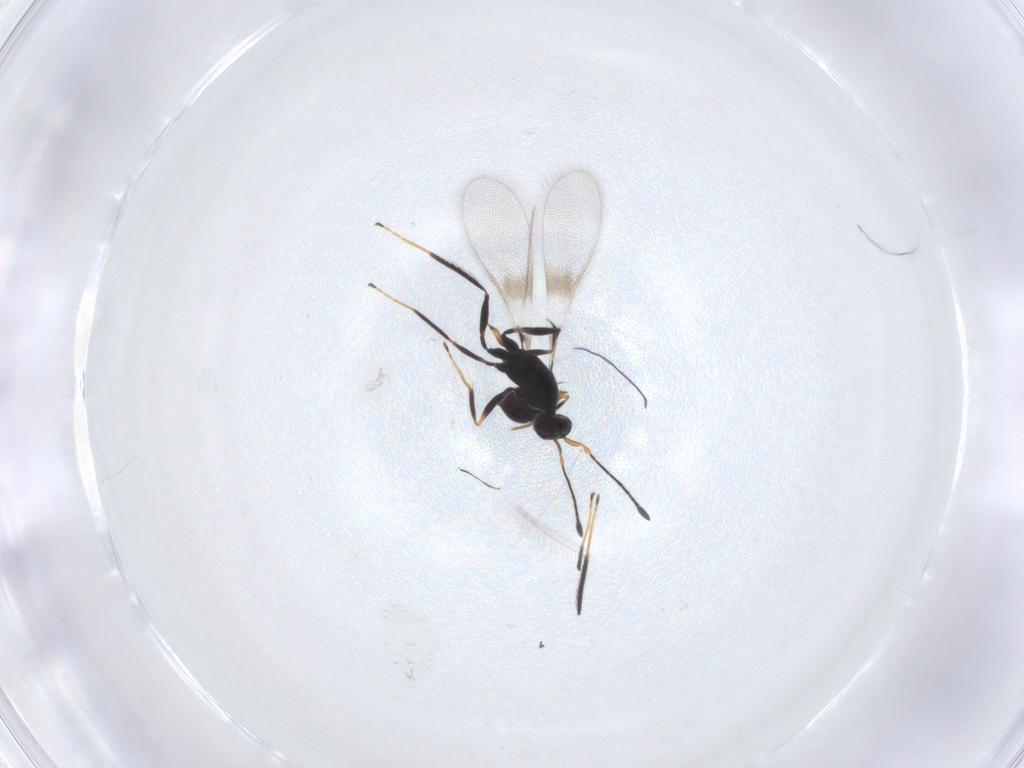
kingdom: Animalia
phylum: Arthropoda
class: Insecta
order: Hymenoptera
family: Mymaridae
